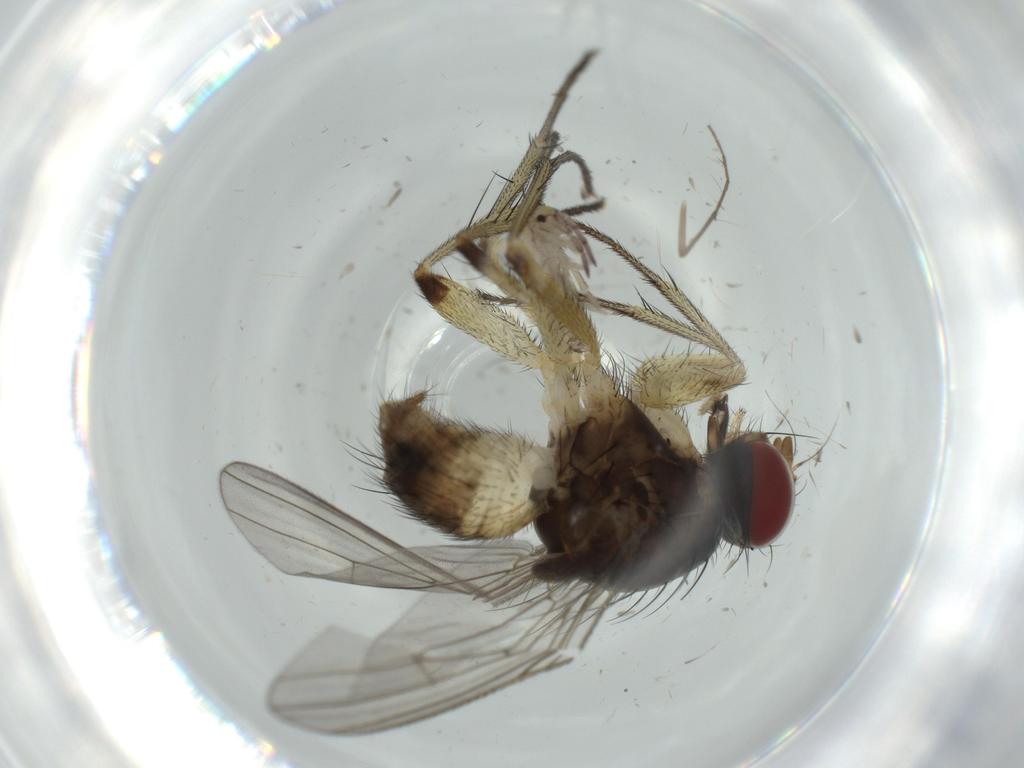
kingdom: Animalia
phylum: Arthropoda
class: Insecta
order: Diptera
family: Muscidae
